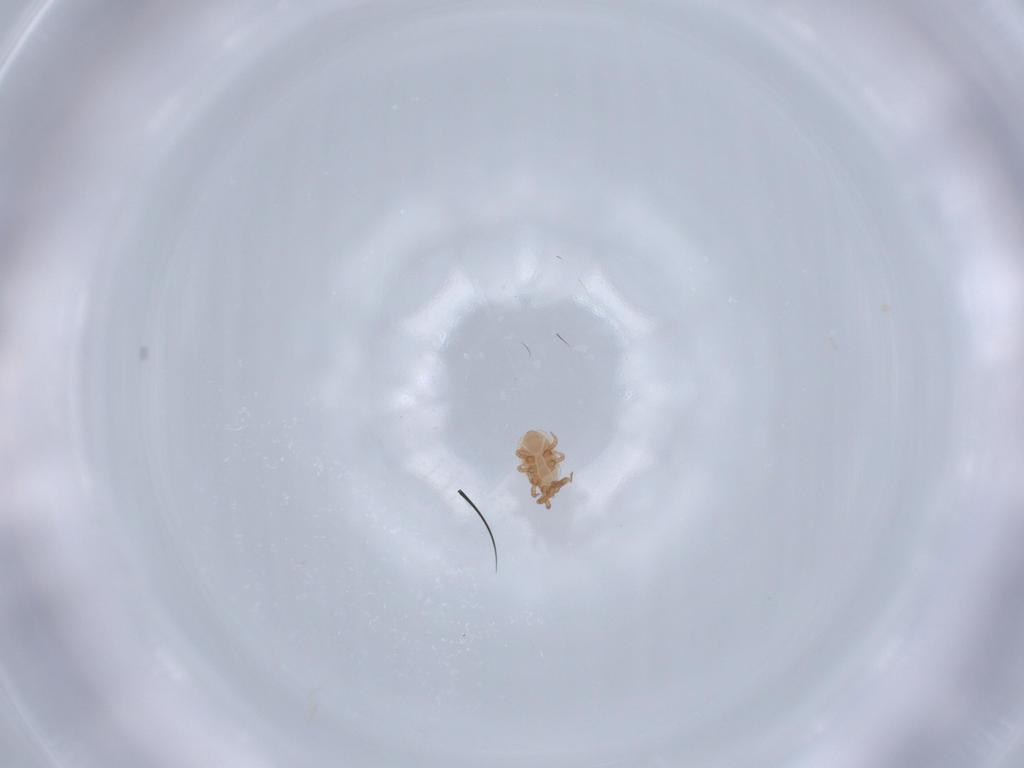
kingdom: Animalia
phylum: Arthropoda
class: Arachnida
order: Mesostigmata
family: Dinychidae
